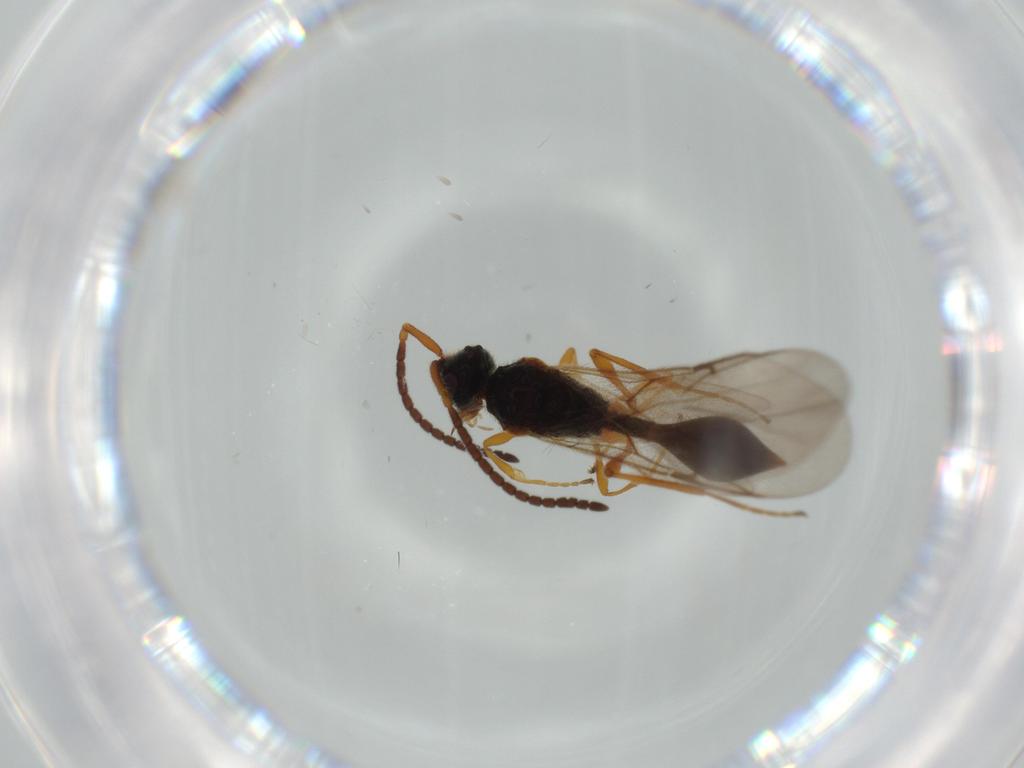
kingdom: Animalia
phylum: Arthropoda
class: Insecta
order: Hymenoptera
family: Diapriidae
